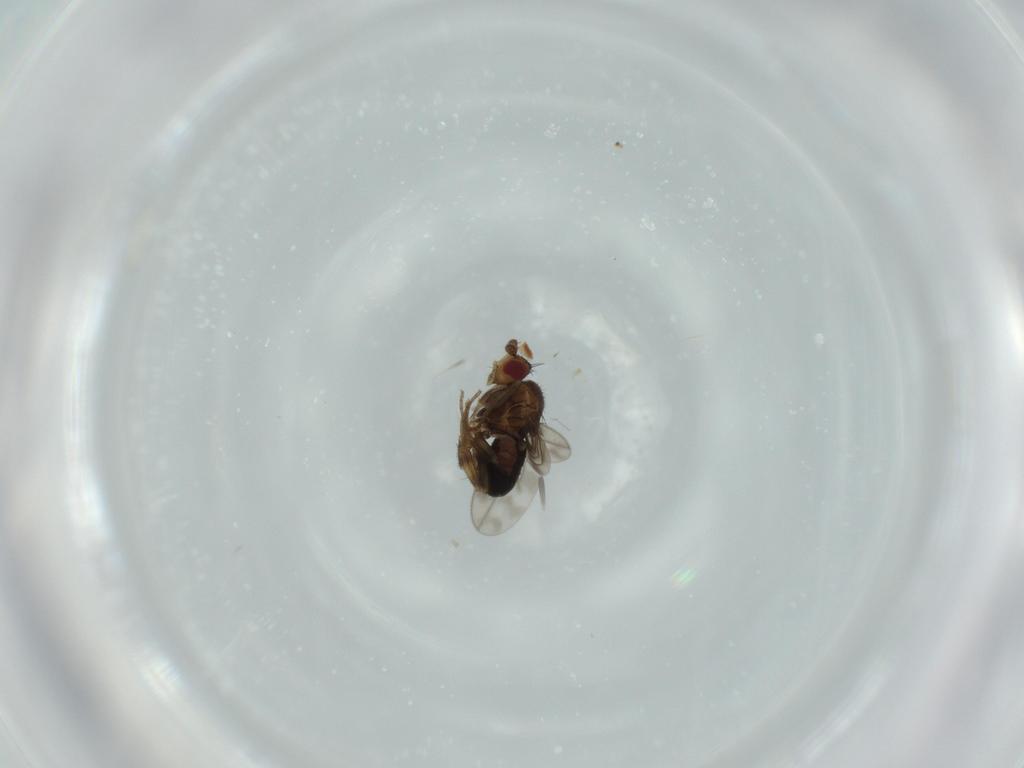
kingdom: Animalia
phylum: Arthropoda
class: Insecta
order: Diptera
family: Sphaeroceridae
